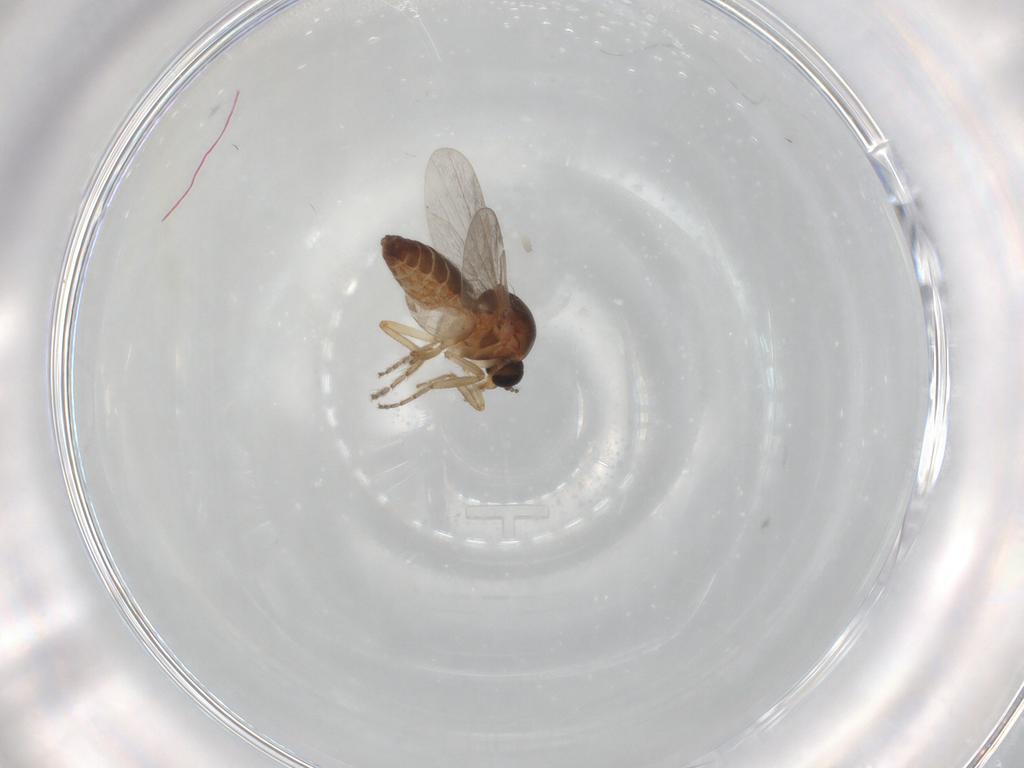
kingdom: Animalia
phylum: Arthropoda
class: Insecta
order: Diptera
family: Ceratopogonidae
